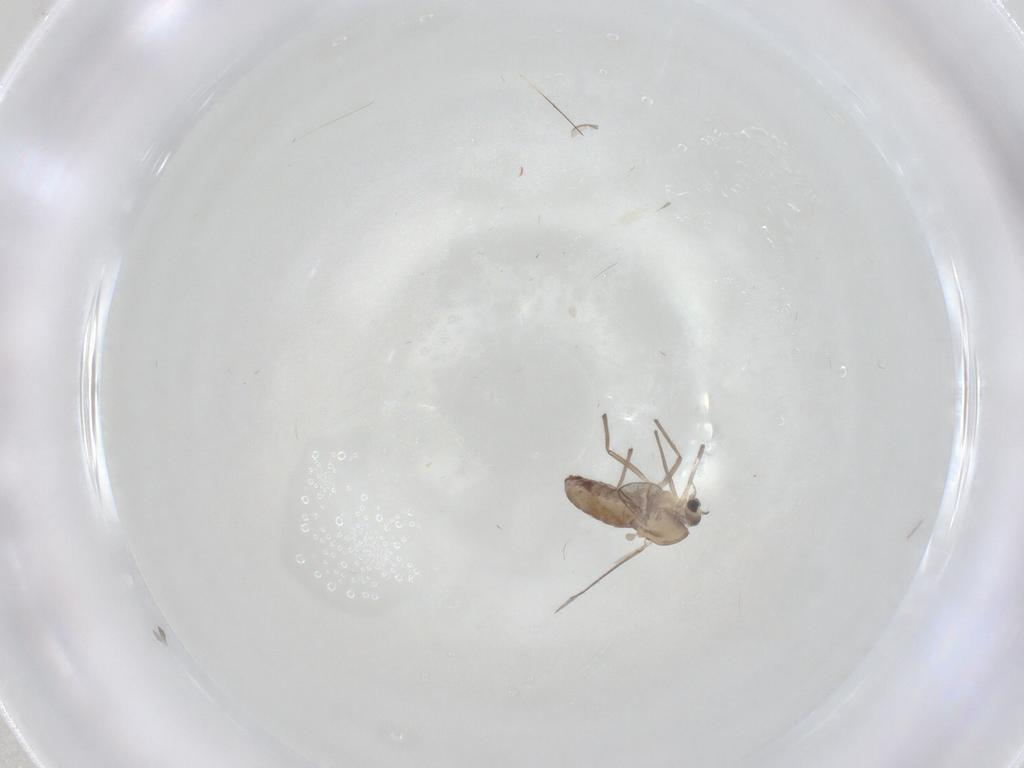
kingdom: Animalia
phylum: Arthropoda
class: Insecta
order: Diptera
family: Chironomidae
